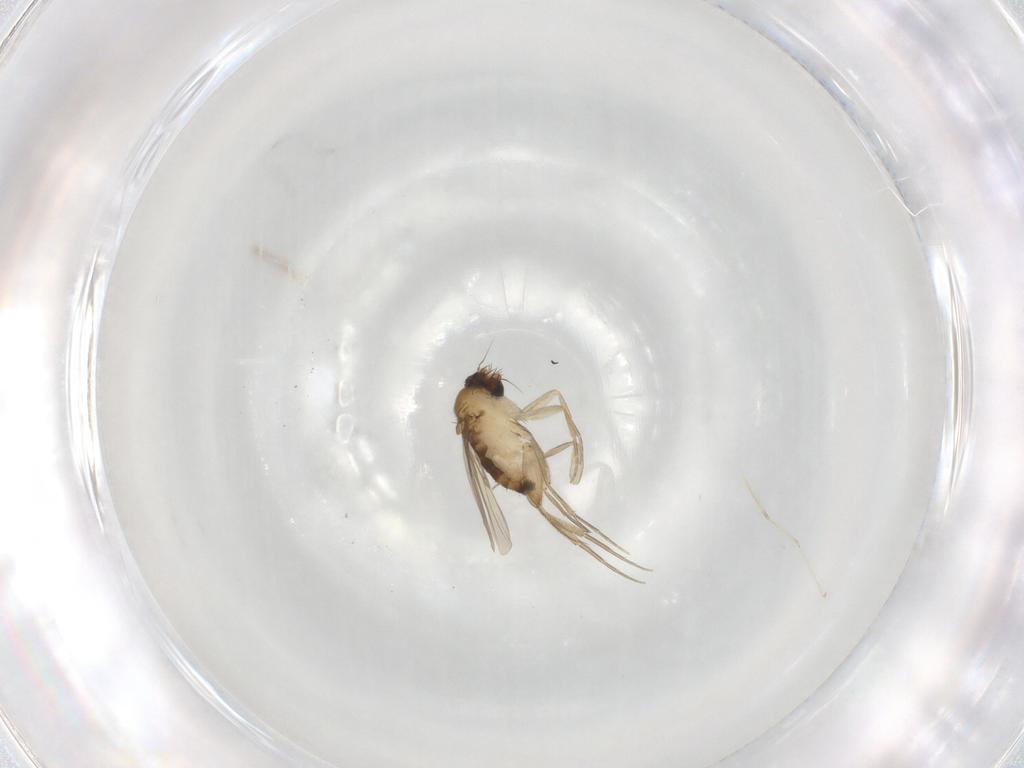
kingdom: Animalia
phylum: Arthropoda
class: Insecta
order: Diptera
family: Phoridae
